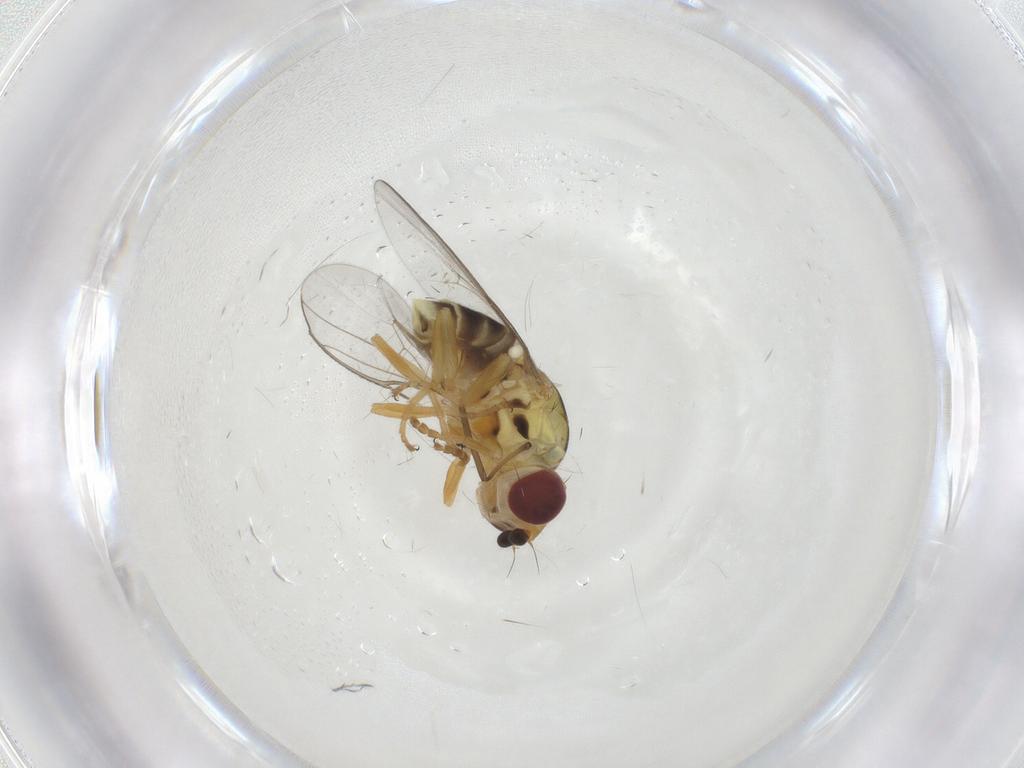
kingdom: Animalia
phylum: Arthropoda
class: Insecta
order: Diptera
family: Chloropidae
